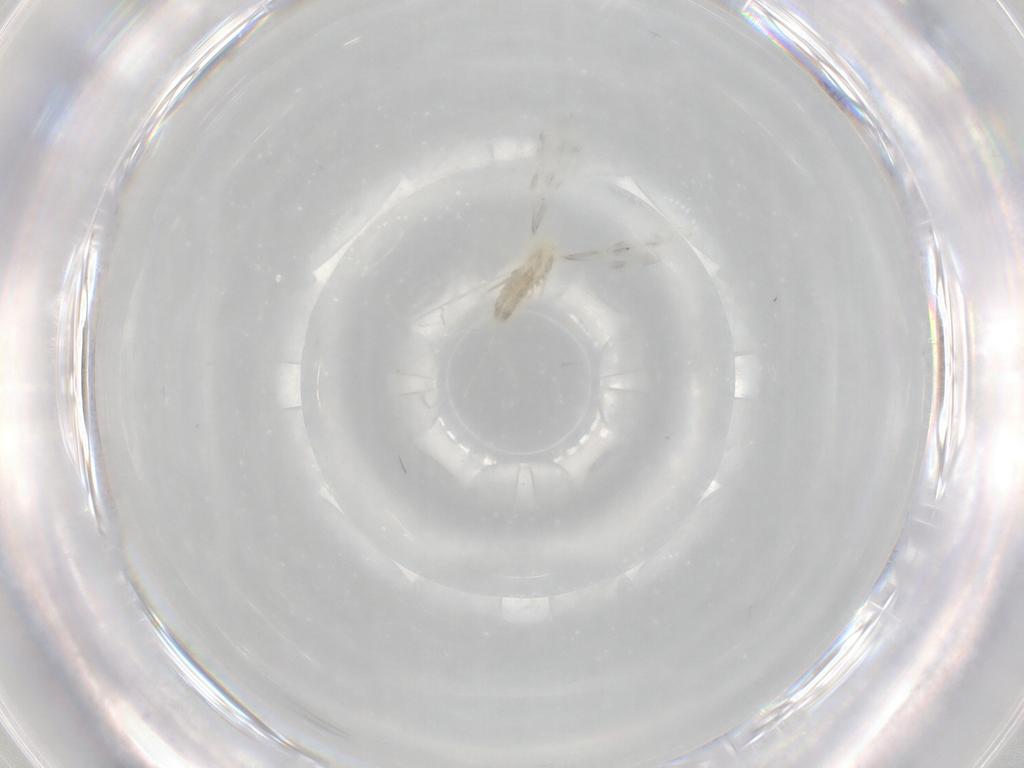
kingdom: Animalia
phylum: Arthropoda
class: Insecta
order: Diptera
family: Cecidomyiidae
